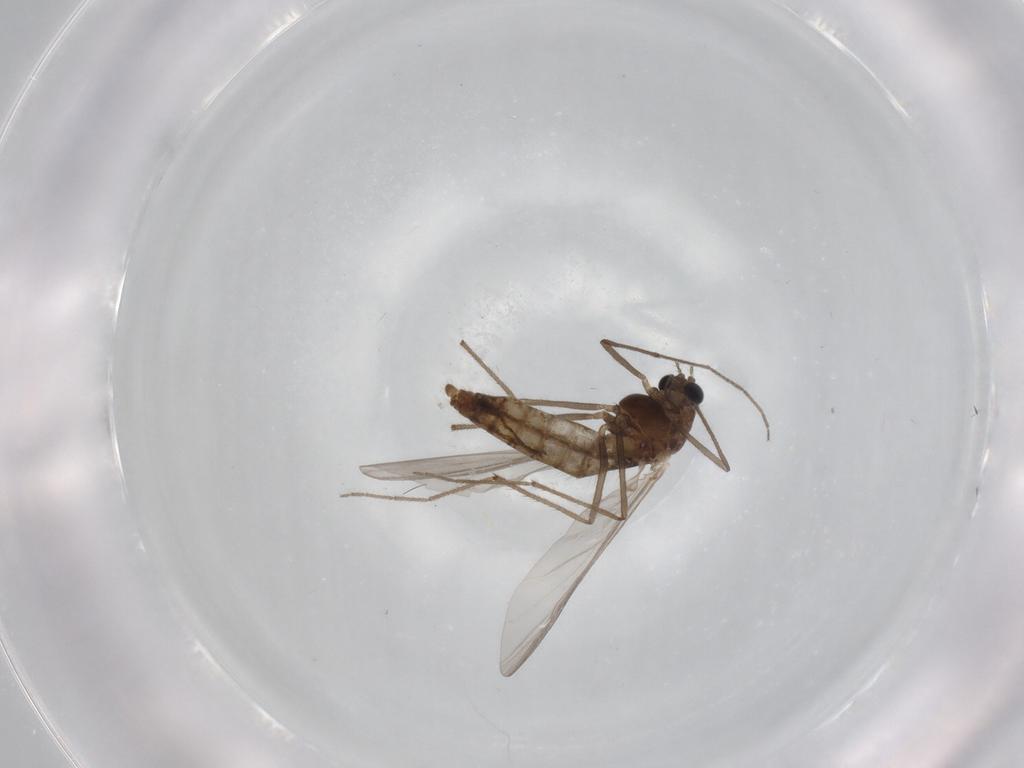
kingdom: Animalia
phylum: Arthropoda
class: Insecta
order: Diptera
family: Chironomidae
